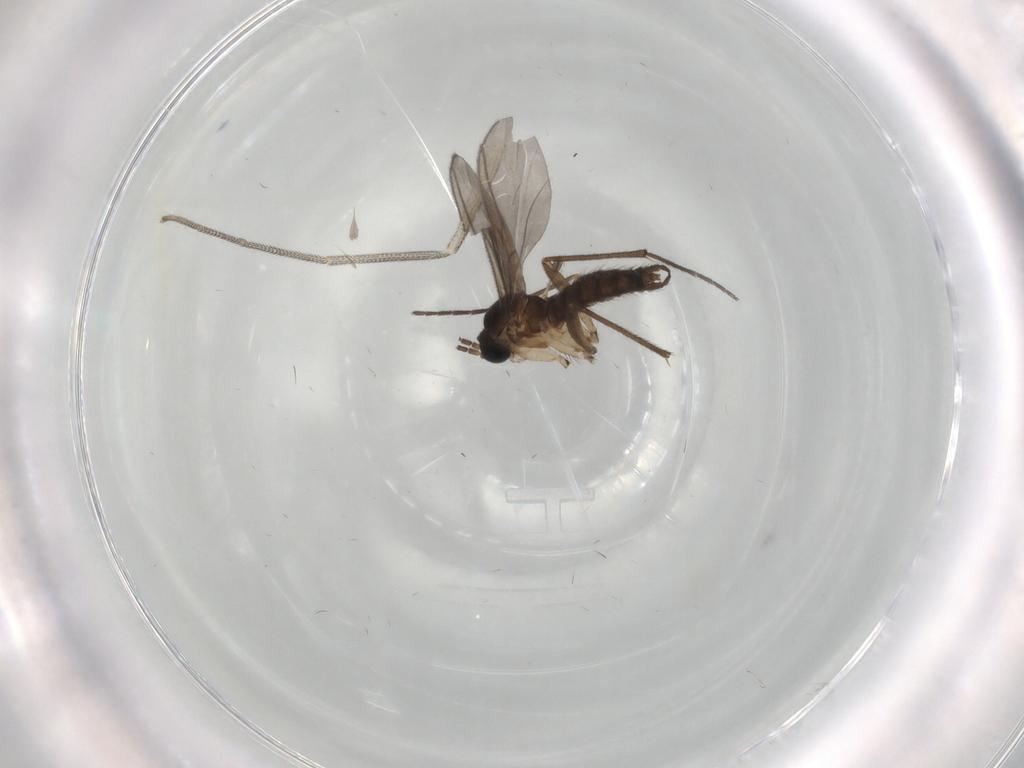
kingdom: Animalia
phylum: Arthropoda
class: Insecta
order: Diptera
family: Dolichopodidae
